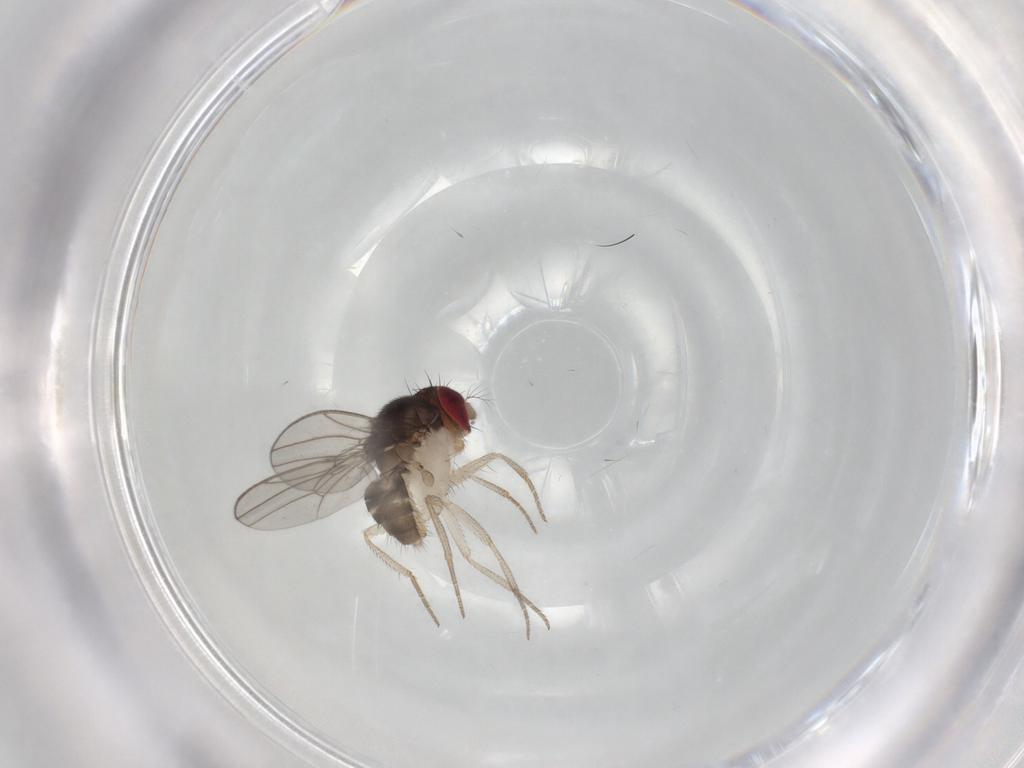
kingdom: Animalia
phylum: Arthropoda
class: Insecta
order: Diptera
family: Drosophilidae
